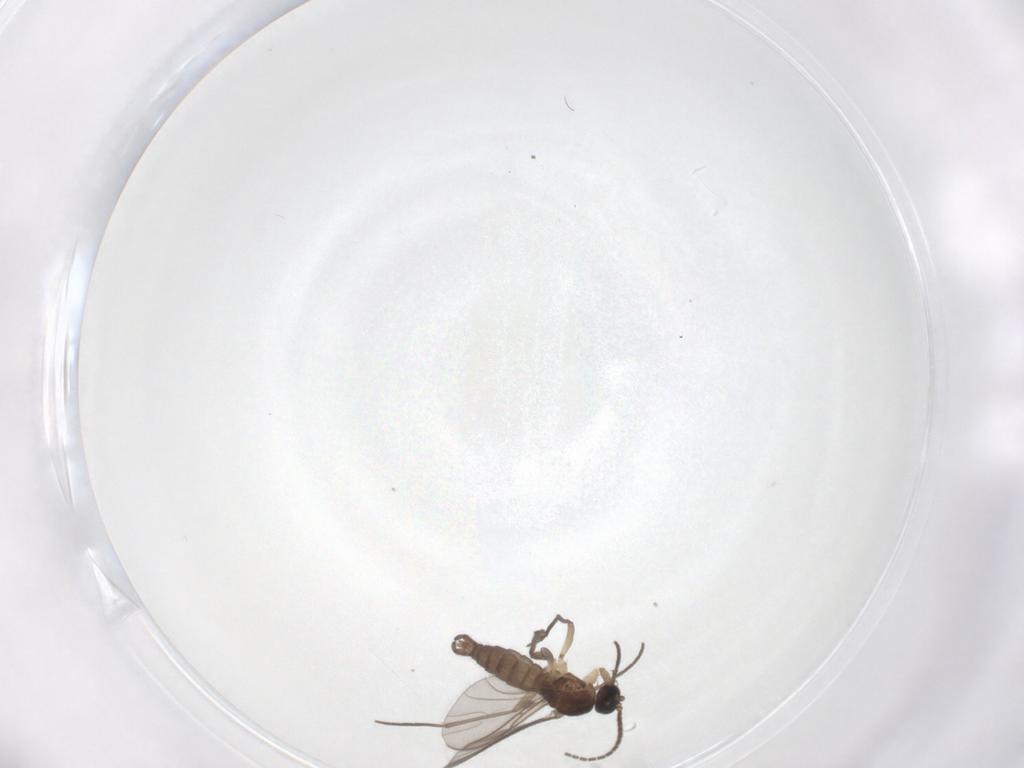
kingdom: Animalia
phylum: Arthropoda
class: Insecta
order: Diptera
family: Sciaridae
